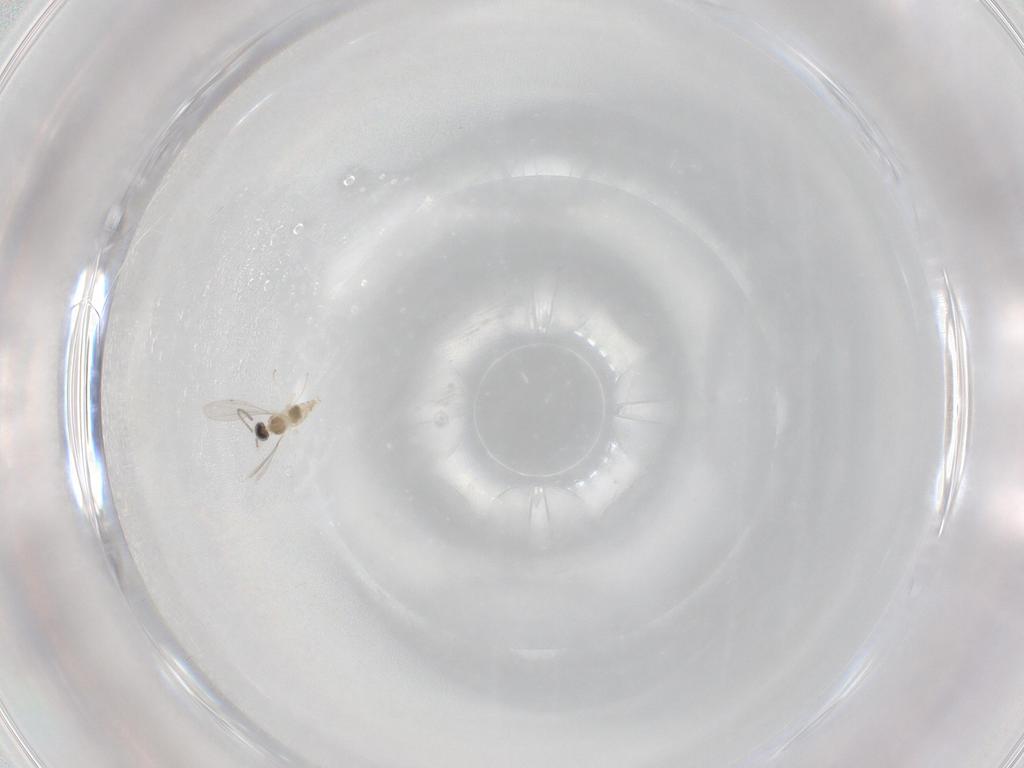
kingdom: Animalia
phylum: Arthropoda
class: Insecta
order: Diptera
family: Cecidomyiidae
